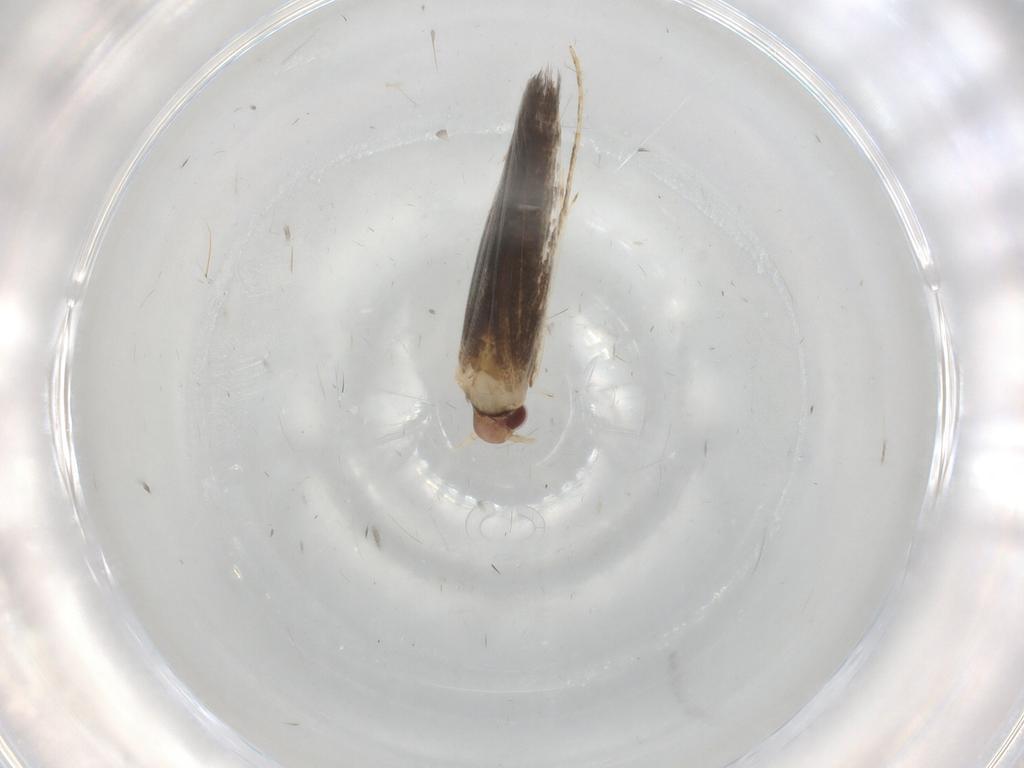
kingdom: Animalia
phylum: Arthropoda
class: Insecta
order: Lepidoptera
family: Gracillariidae
